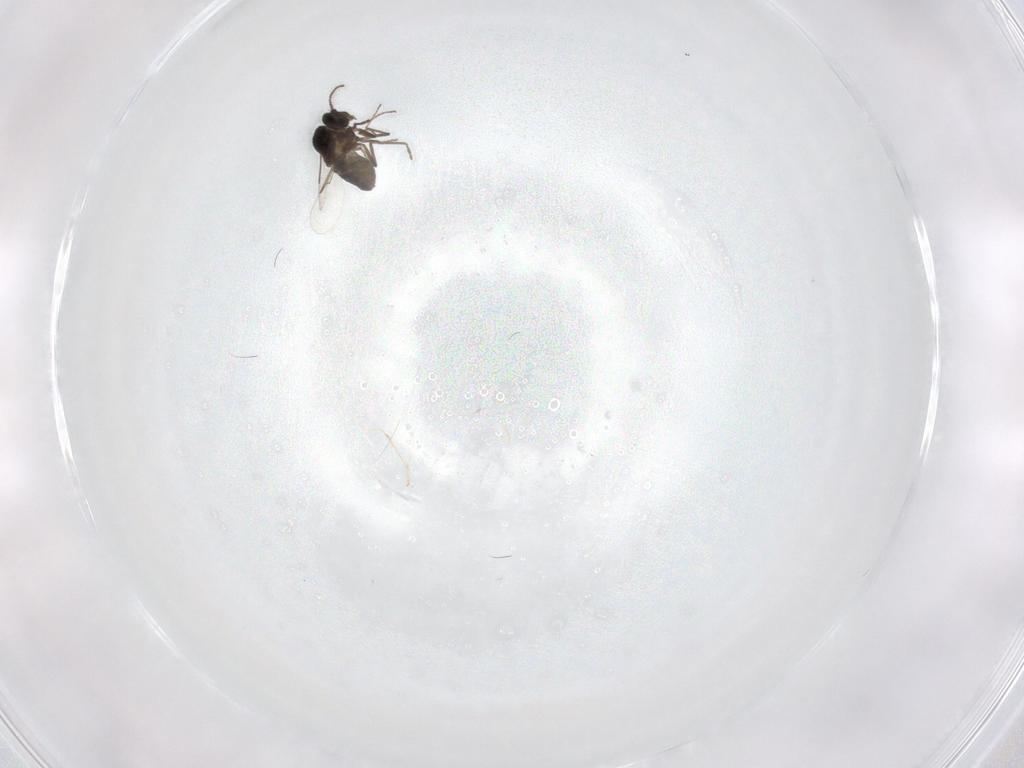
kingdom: Animalia
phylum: Arthropoda
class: Insecta
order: Diptera
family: Ceratopogonidae
